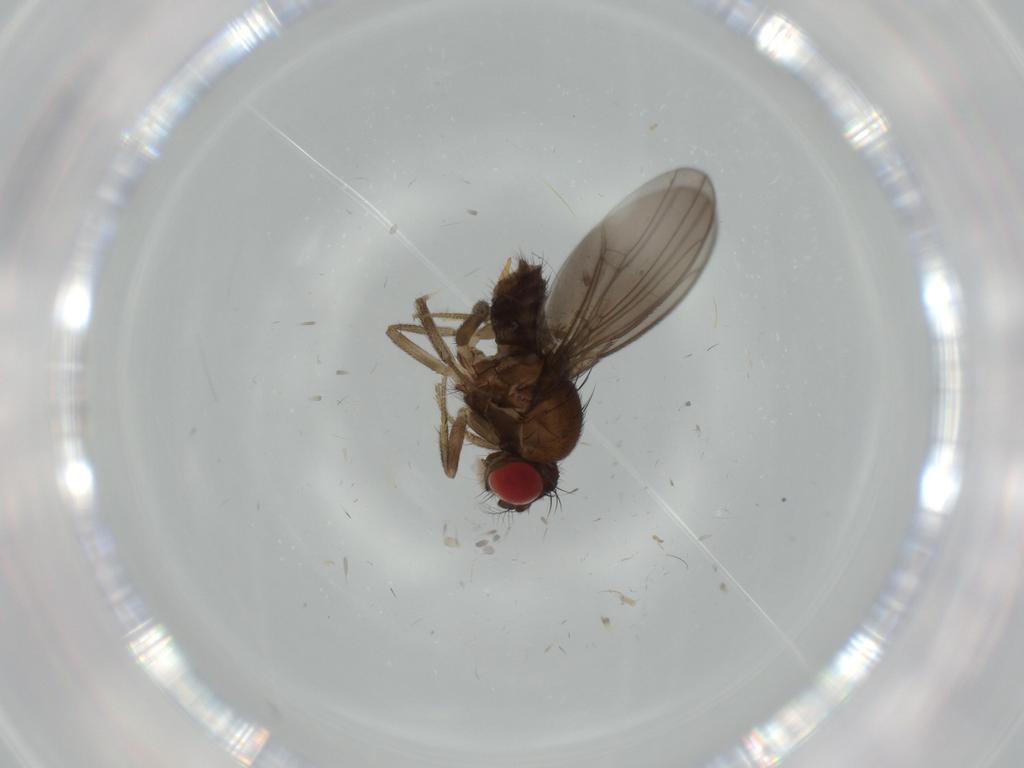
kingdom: Animalia
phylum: Arthropoda
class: Insecta
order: Diptera
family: Drosophilidae
